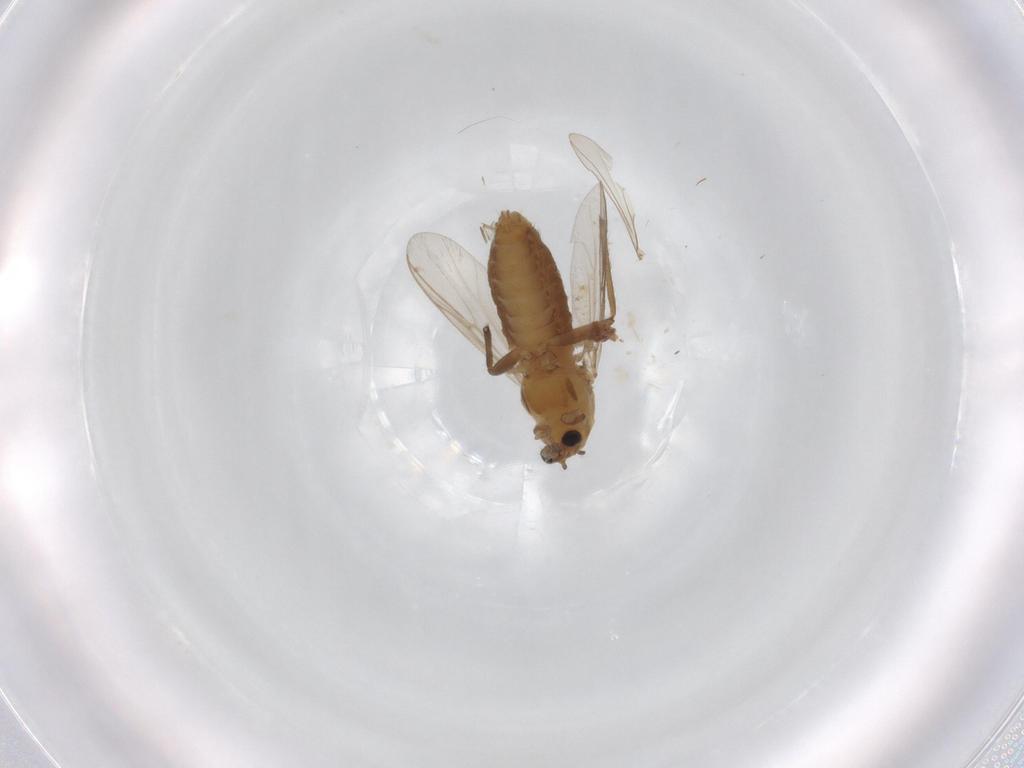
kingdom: Animalia
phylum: Arthropoda
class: Insecta
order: Diptera
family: Chironomidae
